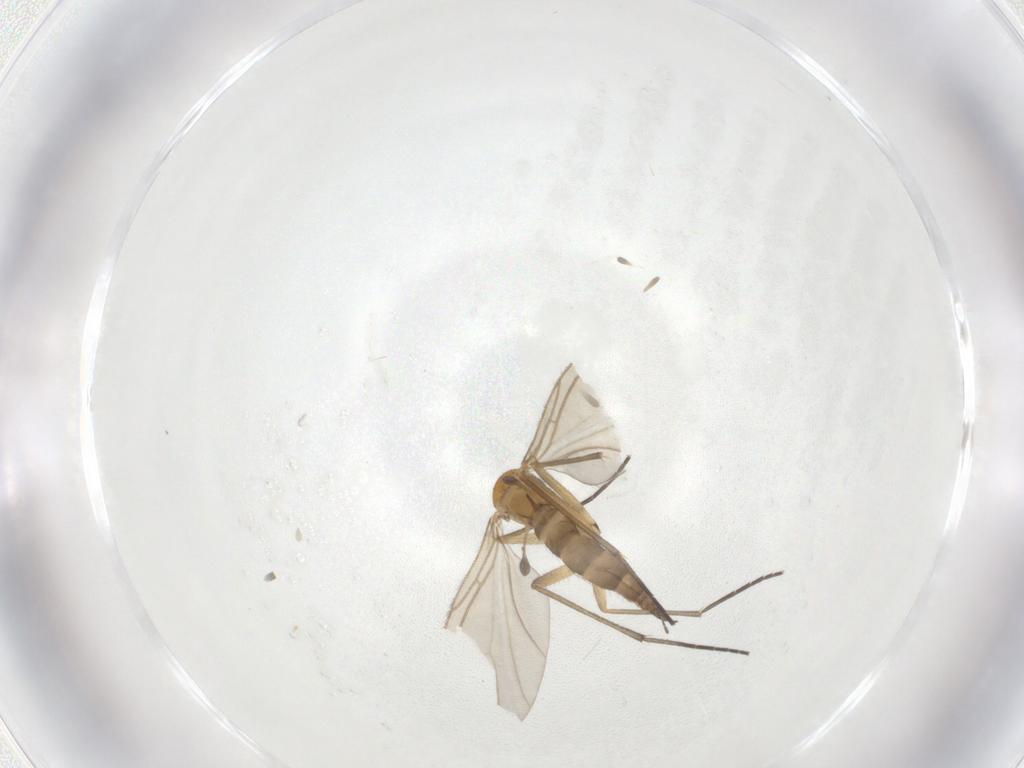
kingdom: Animalia
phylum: Arthropoda
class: Insecta
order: Diptera
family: Sciaridae
